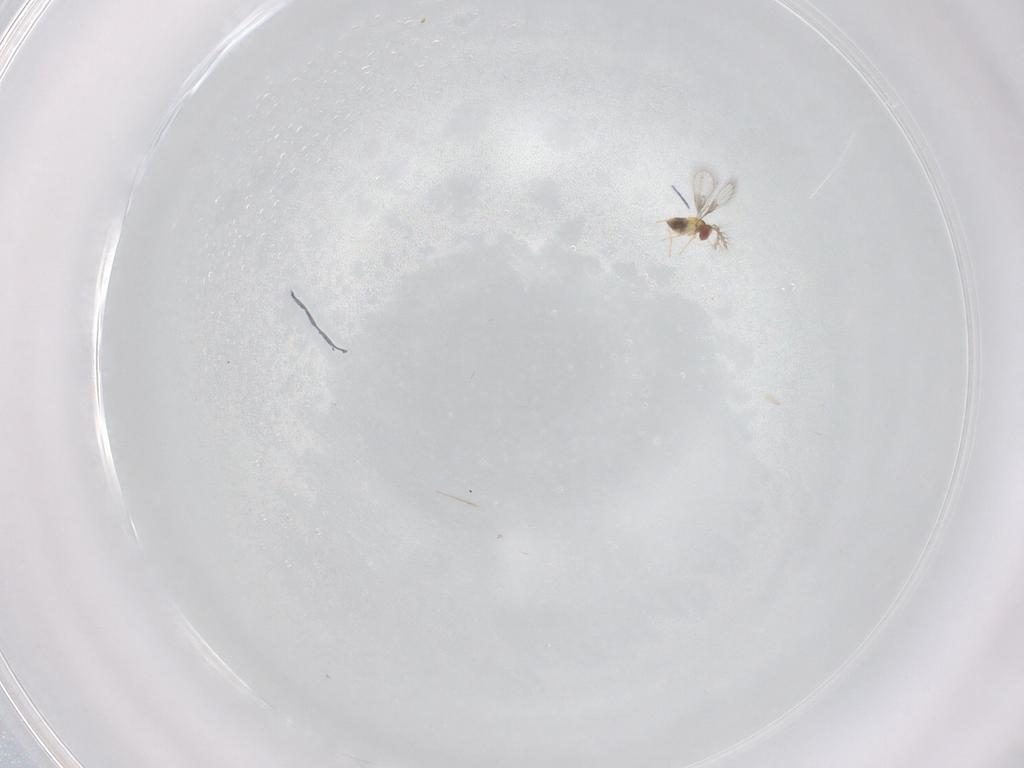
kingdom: Animalia
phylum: Arthropoda
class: Insecta
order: Hymenoptera
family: Trichogrammatidae
